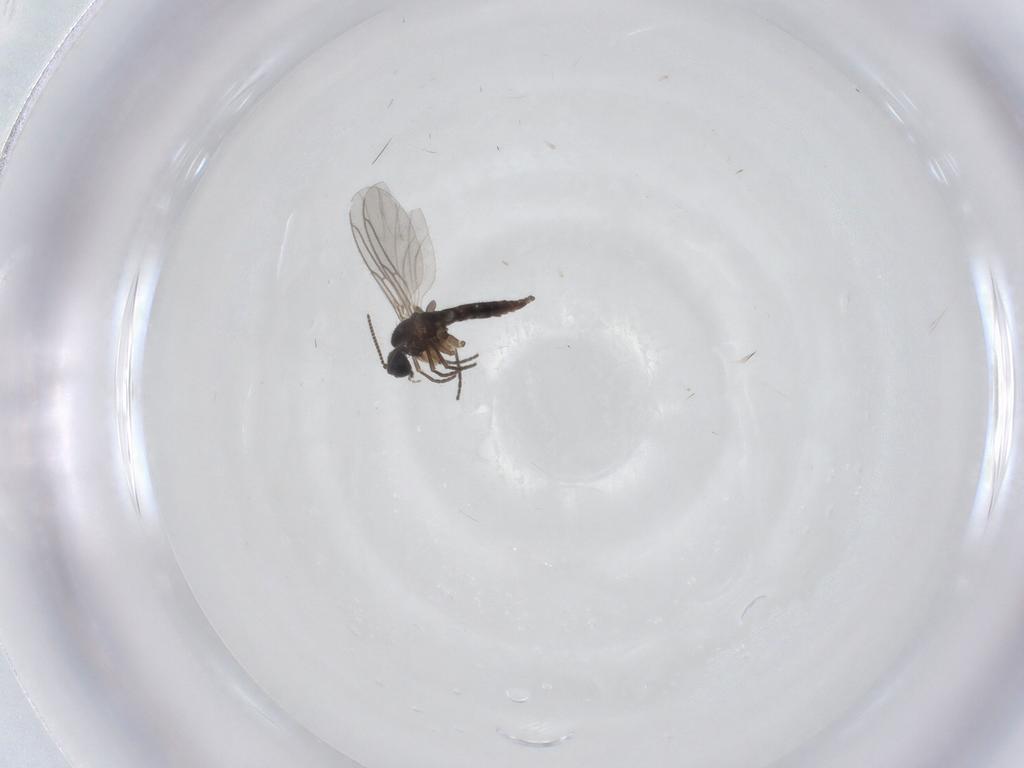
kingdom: Animalia
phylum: Arthropoda
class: Insecta
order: Diptera
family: Sciaridae
